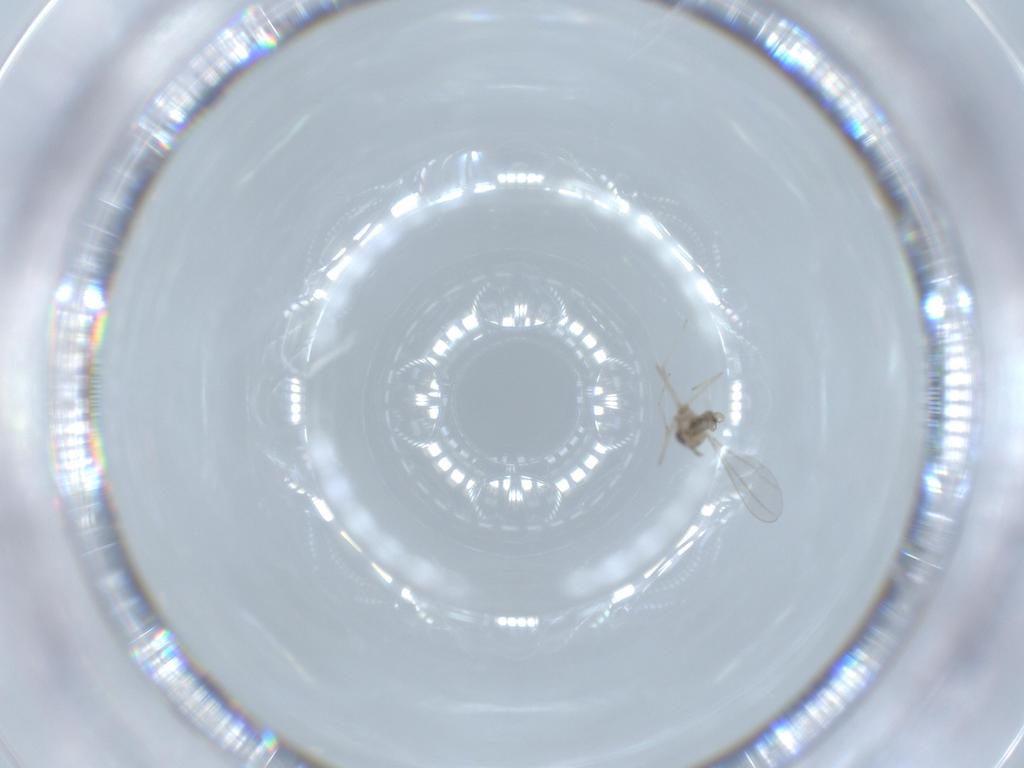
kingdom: Animalia
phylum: Arthropoda
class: Insecta
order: Diptera
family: Cecidomyiidae
